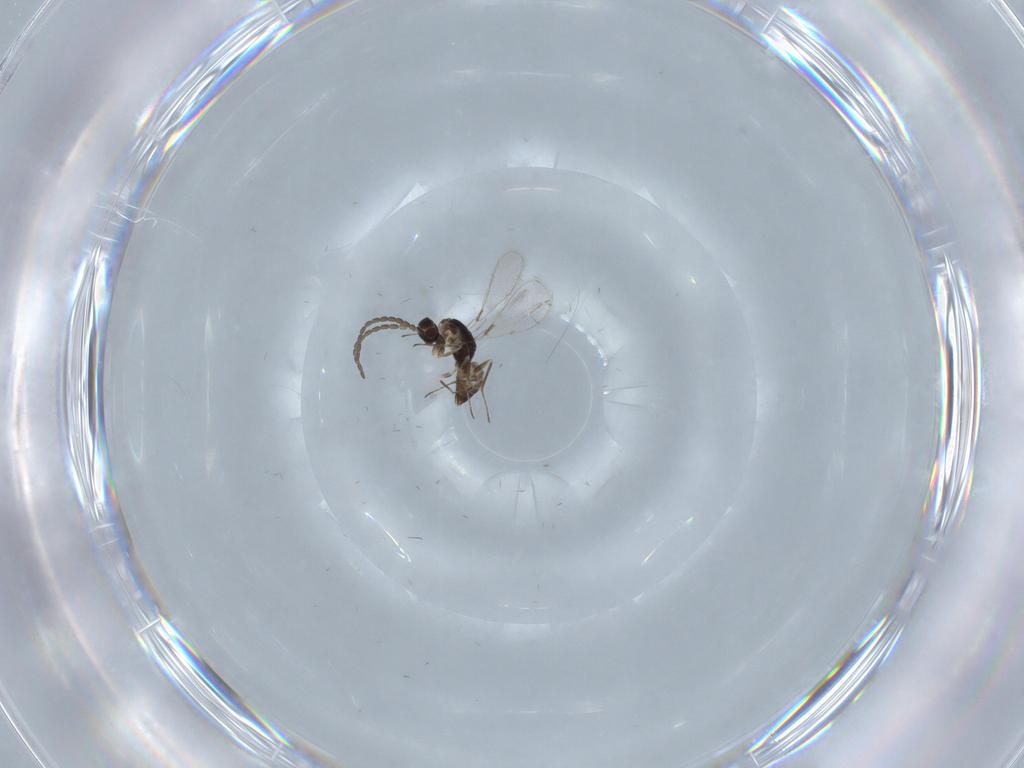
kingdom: Animalia
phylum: Arthropoda
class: Insecta
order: Hymenoptera
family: Mymaridae
